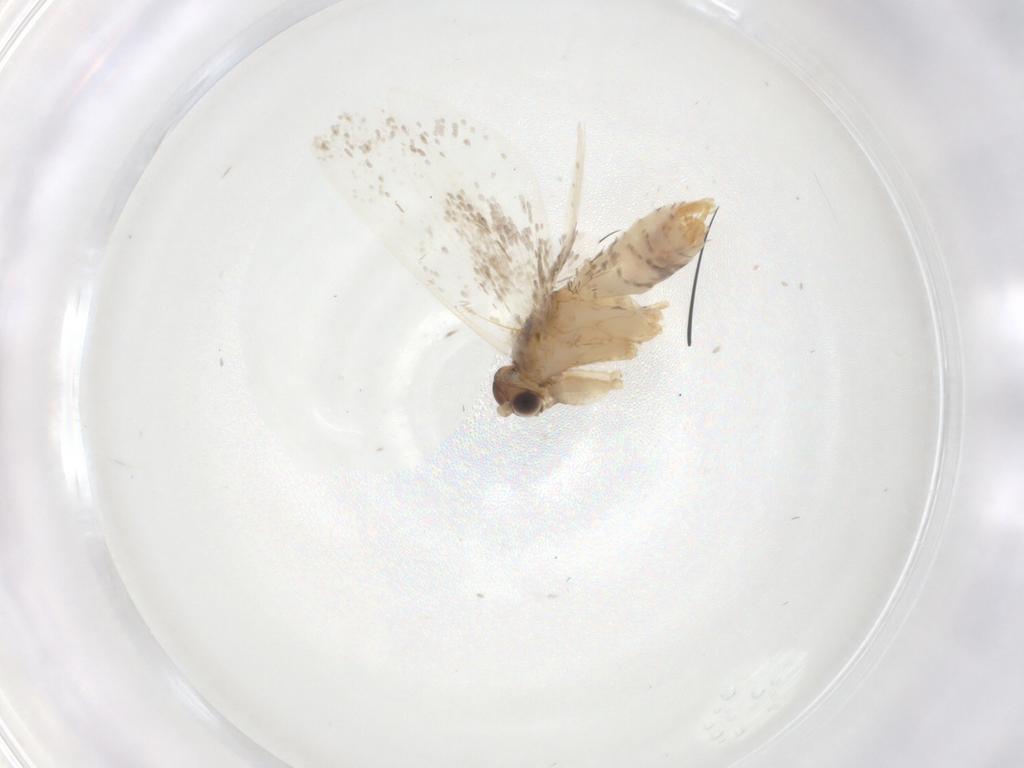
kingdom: Animalia
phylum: Arthropoda
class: Insecta
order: Lepidoptera
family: Dryadaulidae
